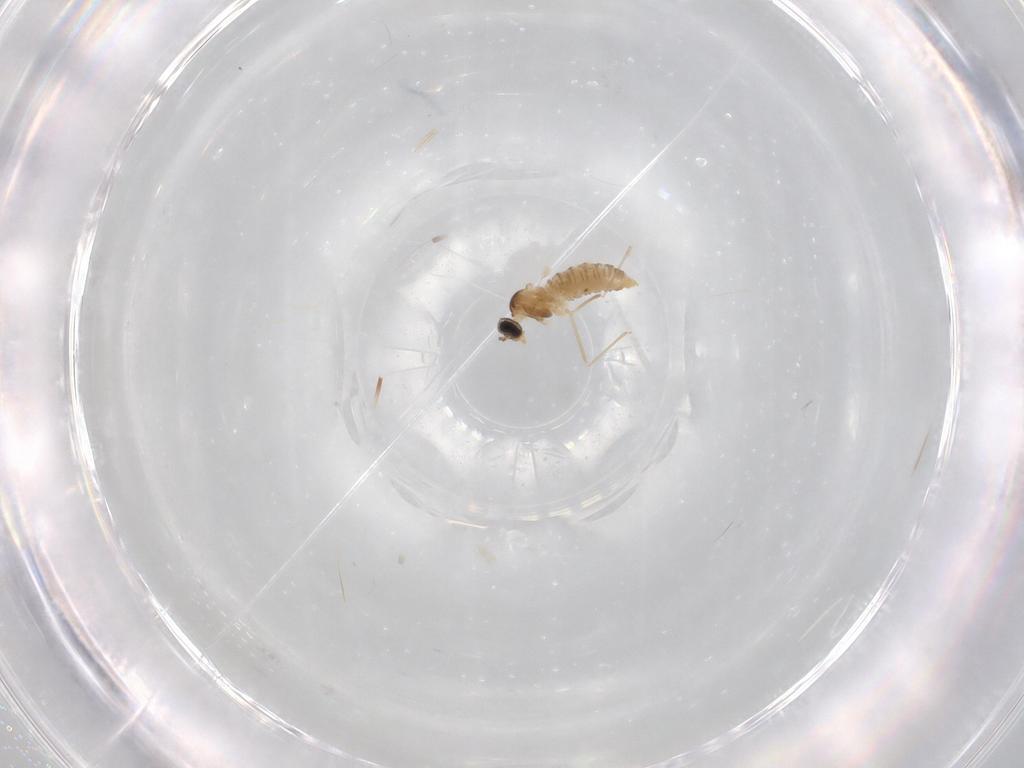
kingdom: Animalia
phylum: Arthropoda
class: Insecta
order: Diptera
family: Cecidomyiidae
